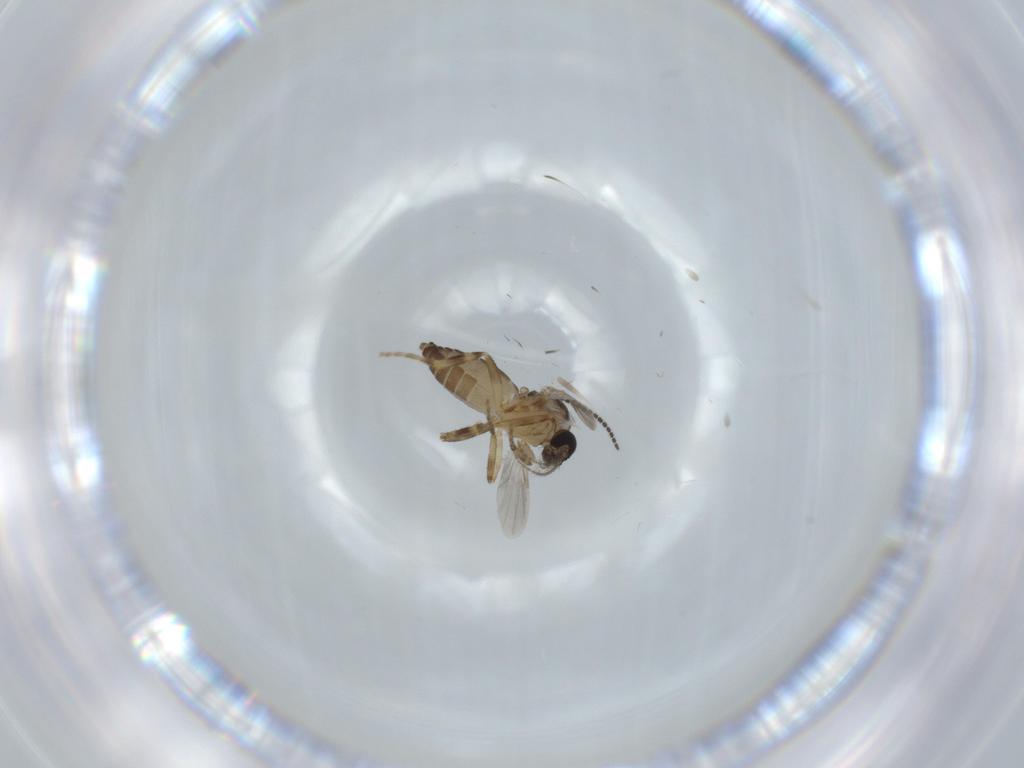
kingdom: Animalia
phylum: Arthropoda
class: Insecta
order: Diptera
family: Ceratopogonidae
